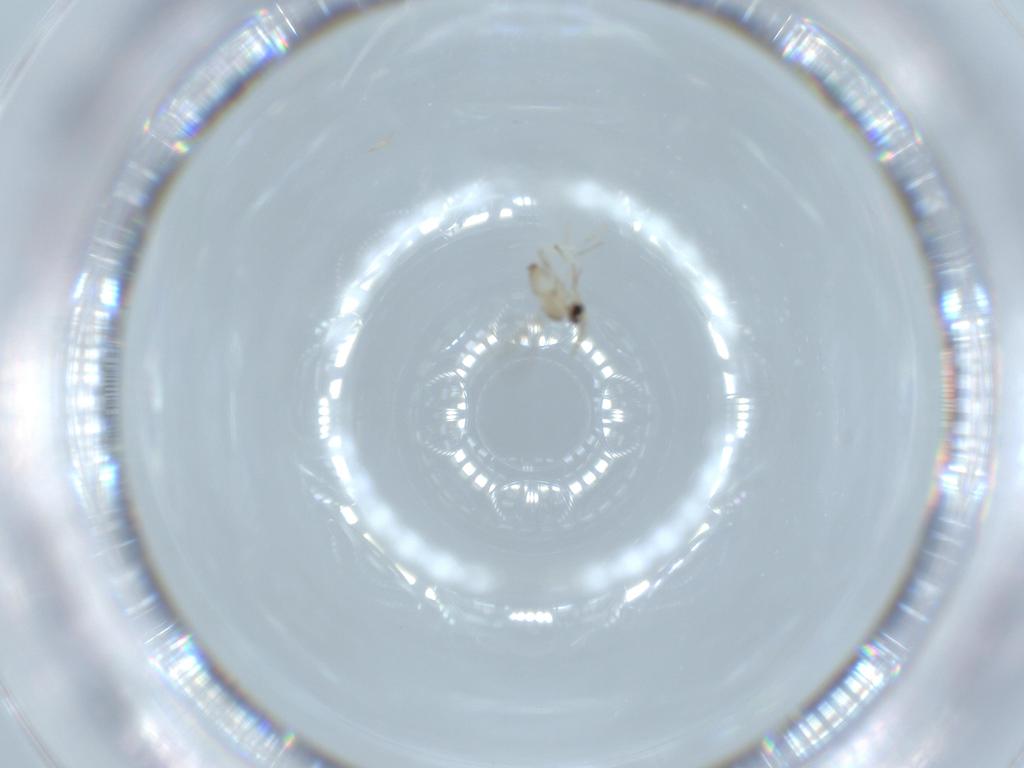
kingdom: Animalia
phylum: Arthropoda
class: Insecta
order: Diptera
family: Cecidomyiidae
